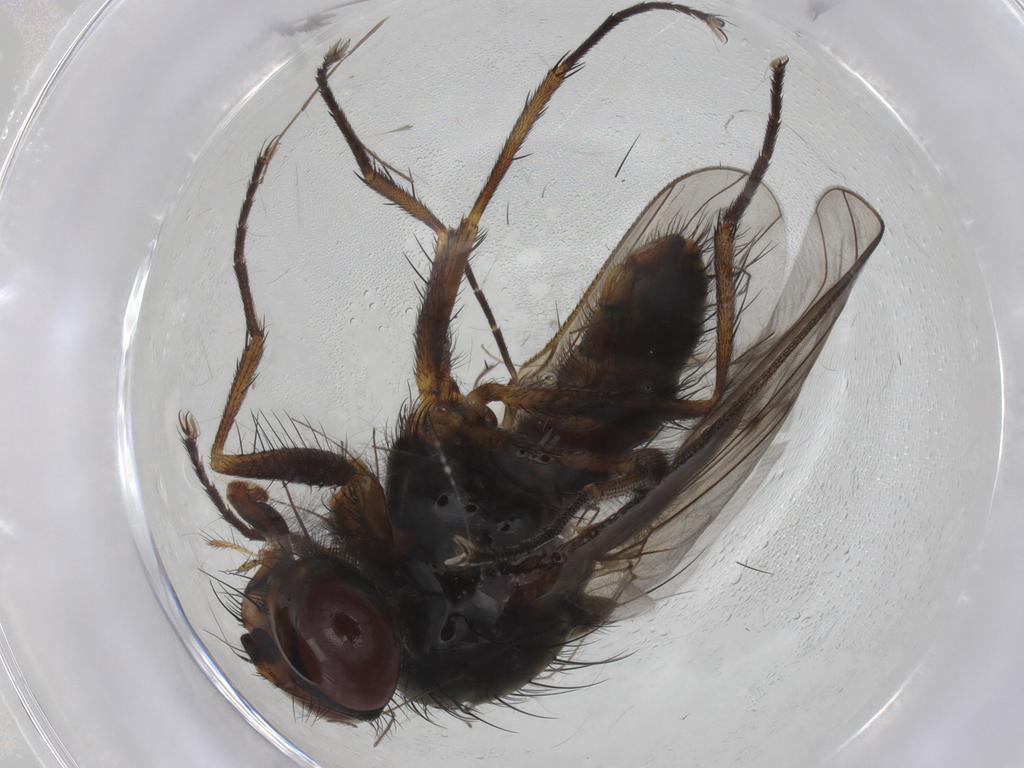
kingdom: Animalia
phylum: Arthropoda
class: Insecta
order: Diptera
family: Anthomyiidae
